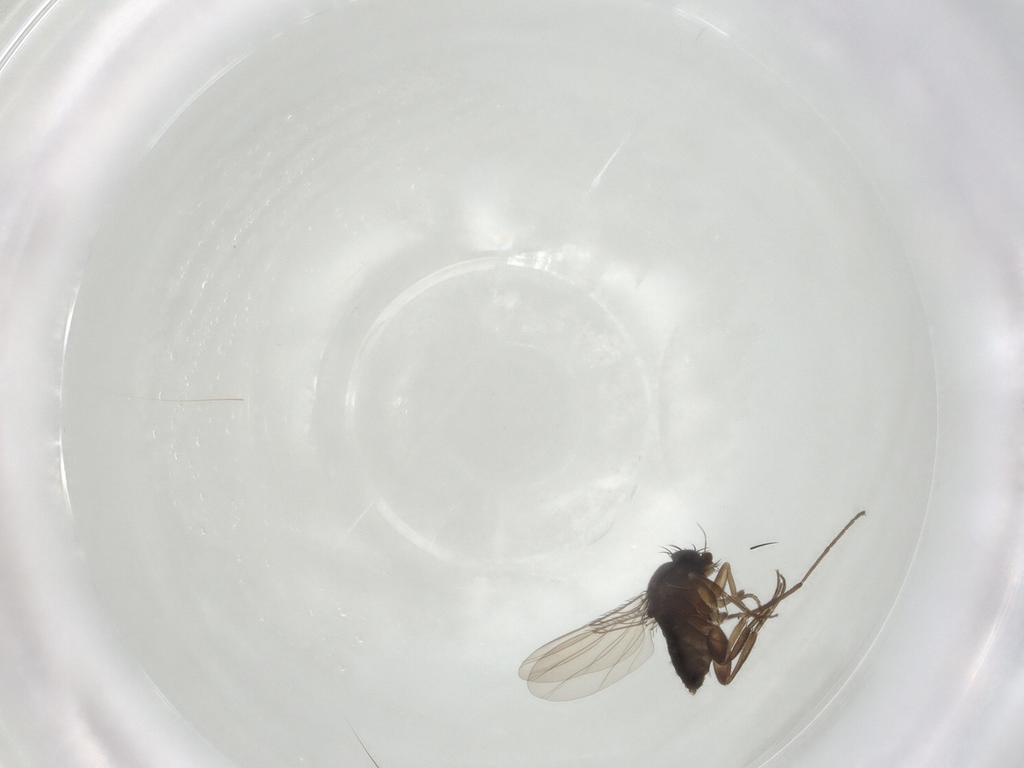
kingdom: Animalia
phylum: Arthropoda
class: Insecta
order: Diptera
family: Phoridae
